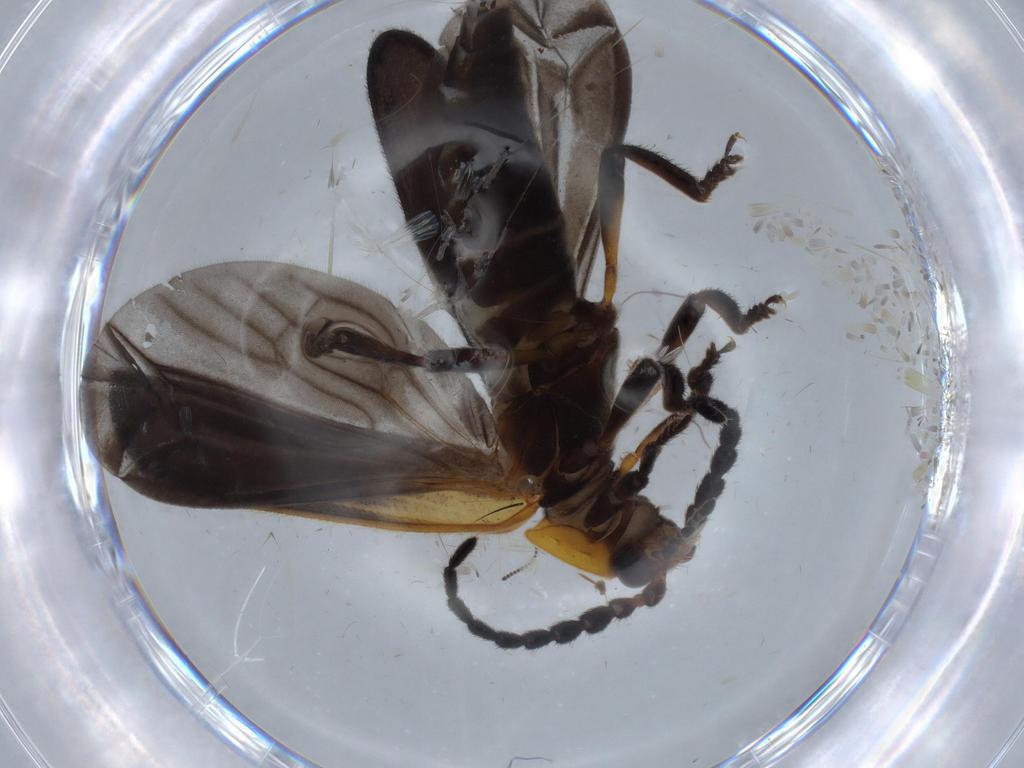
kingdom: Animalia
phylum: Arthropoda
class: Insecta
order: Coleoptera
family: Lycidae
